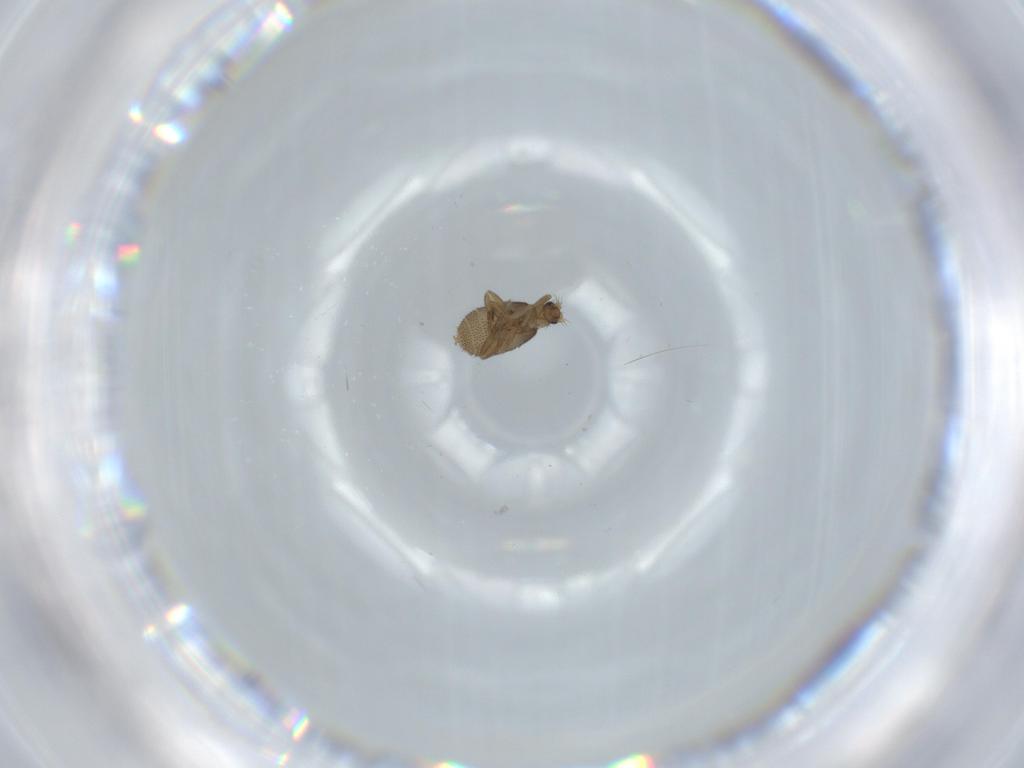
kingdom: Animalia
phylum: Arthropoda
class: Insecta
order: Diptera
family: Phoridae
